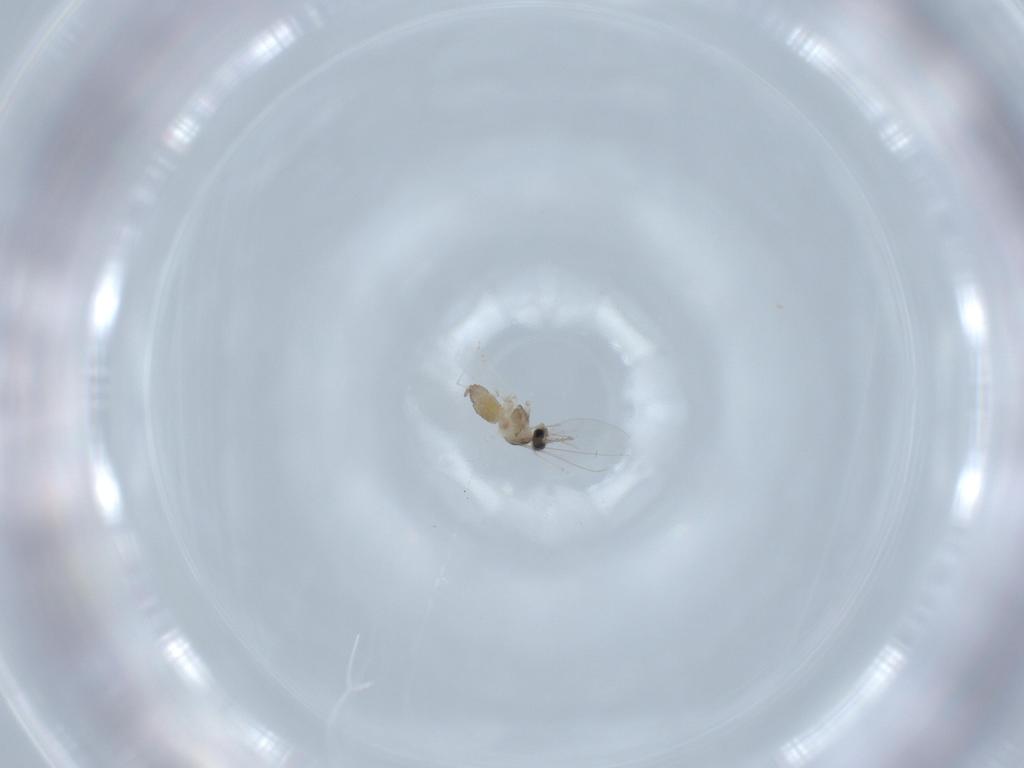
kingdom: Animalia
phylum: Arthropoda
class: Insecta
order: Diptera
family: Cecidomyiidae
